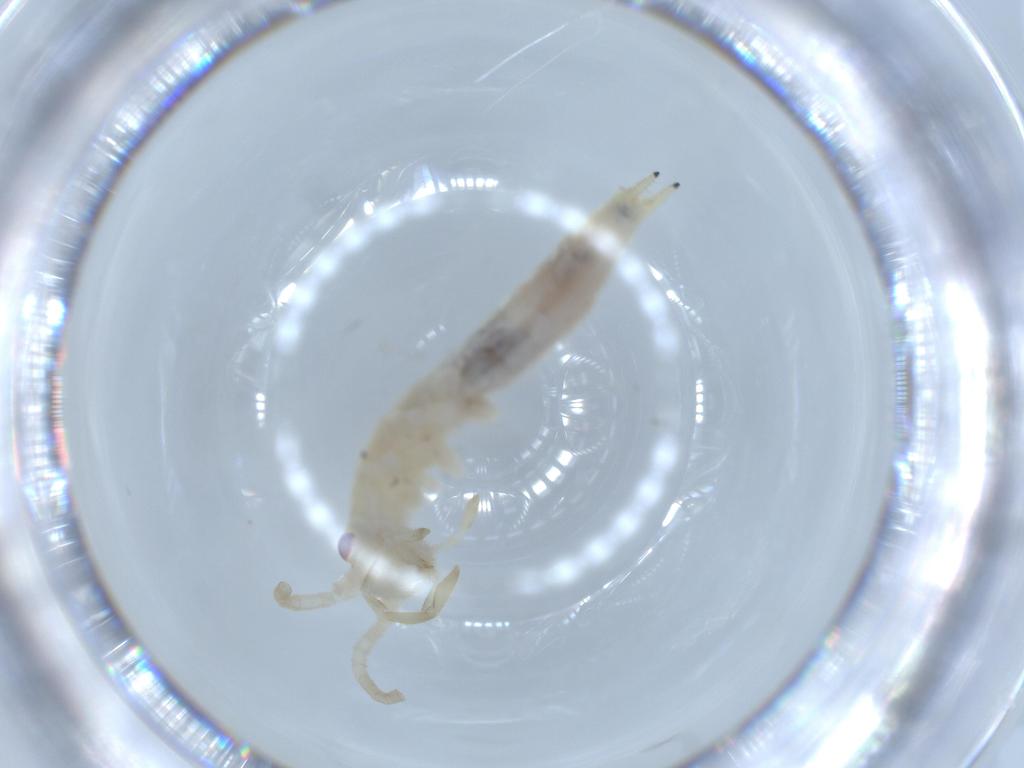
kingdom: Animalia
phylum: Arthropoda
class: Insecta
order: Orthoptera
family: Oecanthidae
